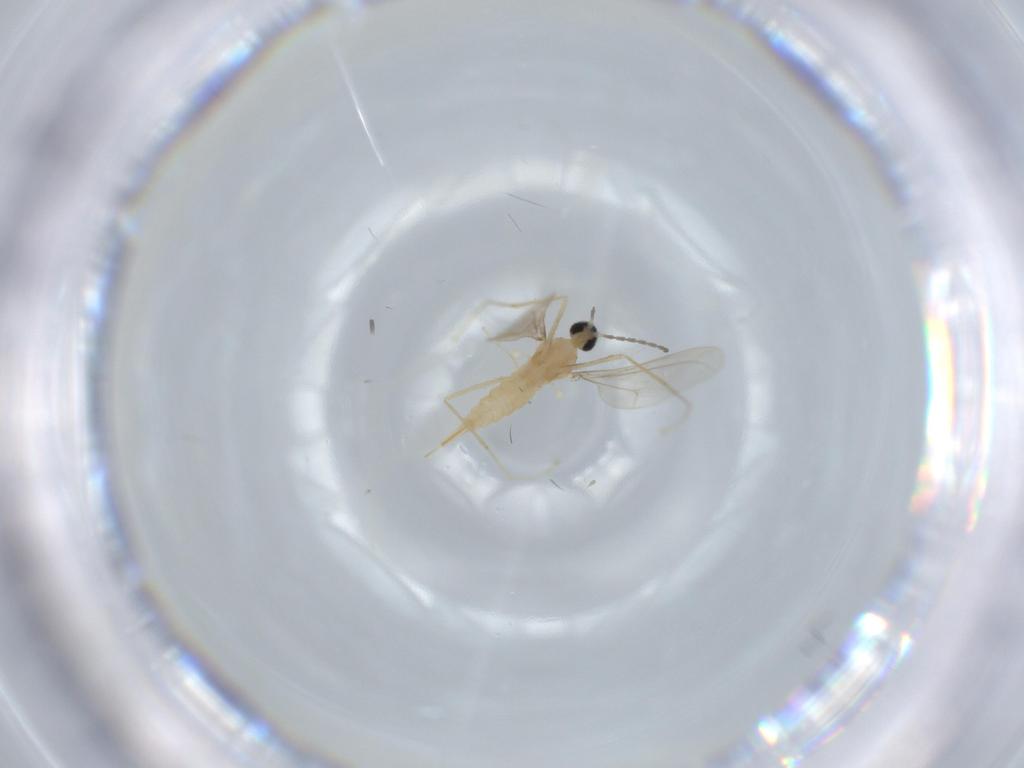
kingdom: Animalia
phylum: Arthropoda
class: Insecta
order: Diptera
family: Cecidomyiidae
